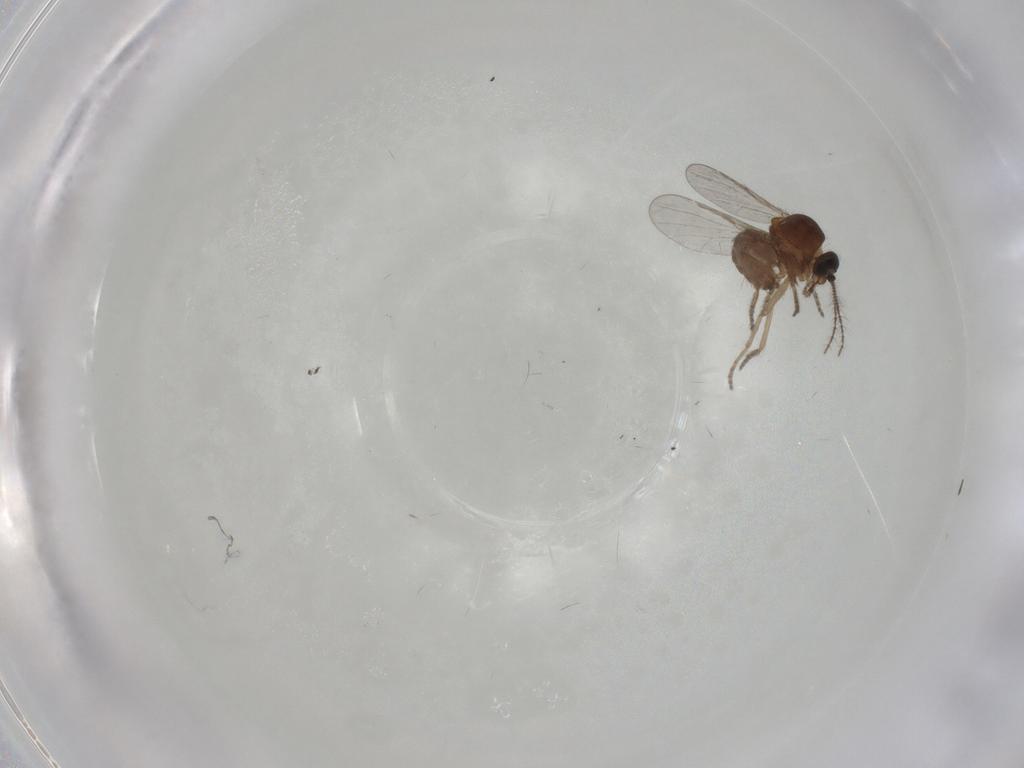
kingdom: Animalia
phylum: Arthropoda
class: Insecta
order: Diptera
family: Ceratopogonidae
